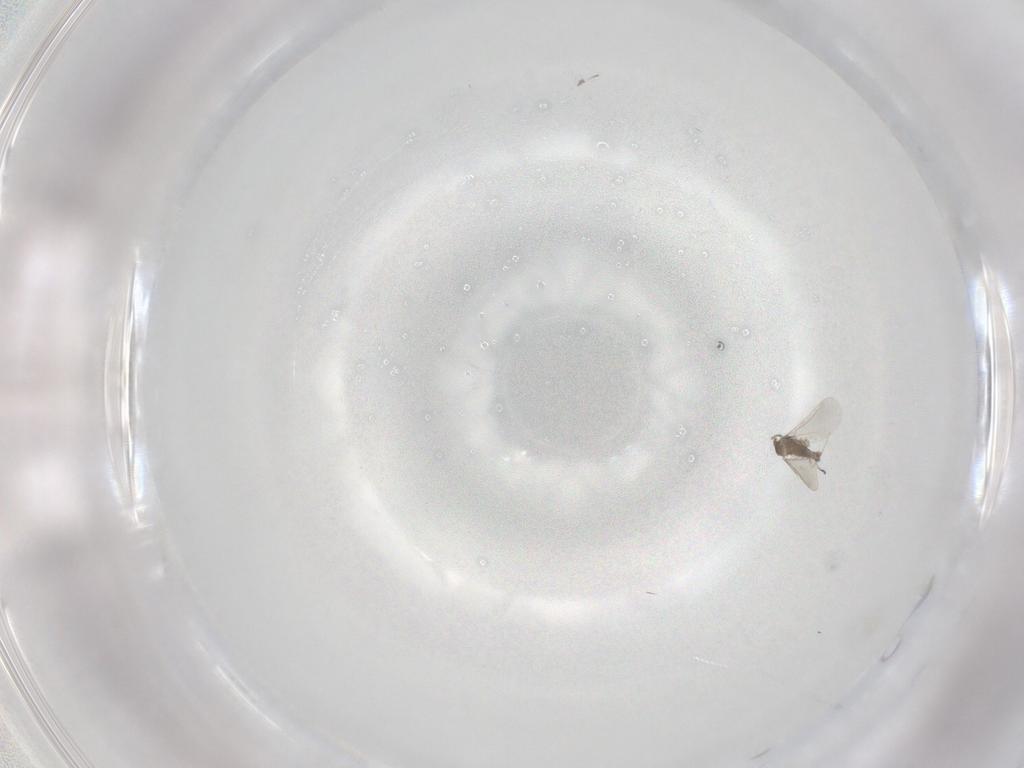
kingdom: Animalia
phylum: Arthropoda
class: Insecta
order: Diptera
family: Cecidomyiidae
